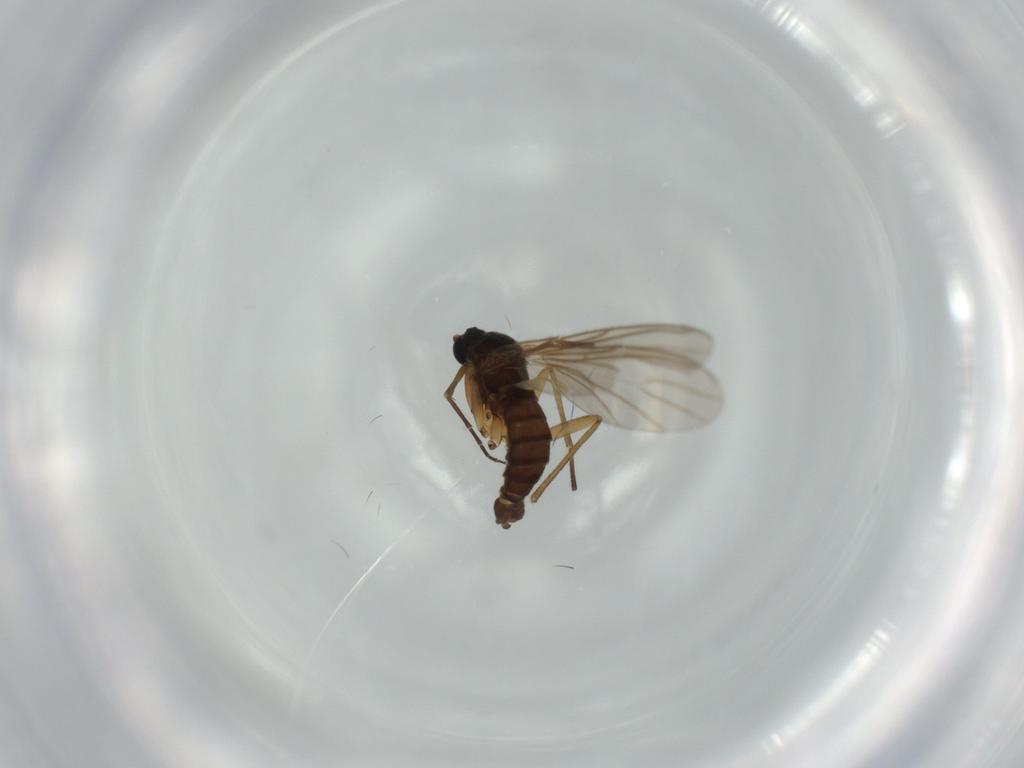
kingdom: Animalia
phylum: Arthropoda
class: Insecta
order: Diptera
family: Sciaridae
